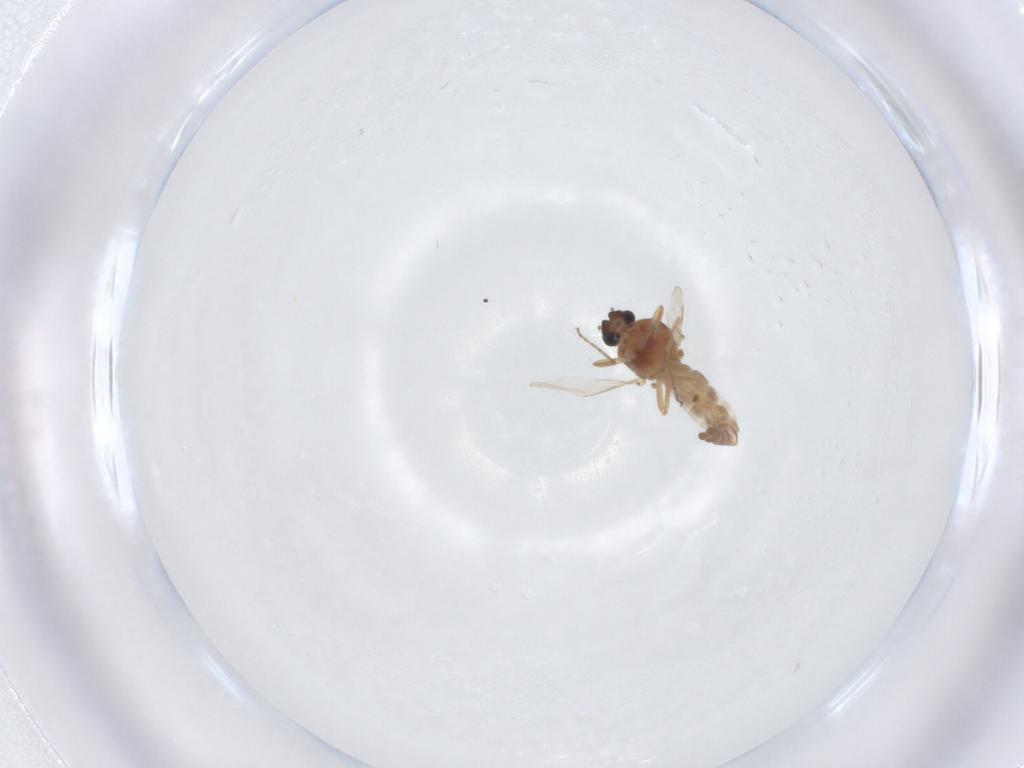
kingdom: Animalia
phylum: Arthropoda
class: Insecta
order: Diptera
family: Ceratopogonidae
